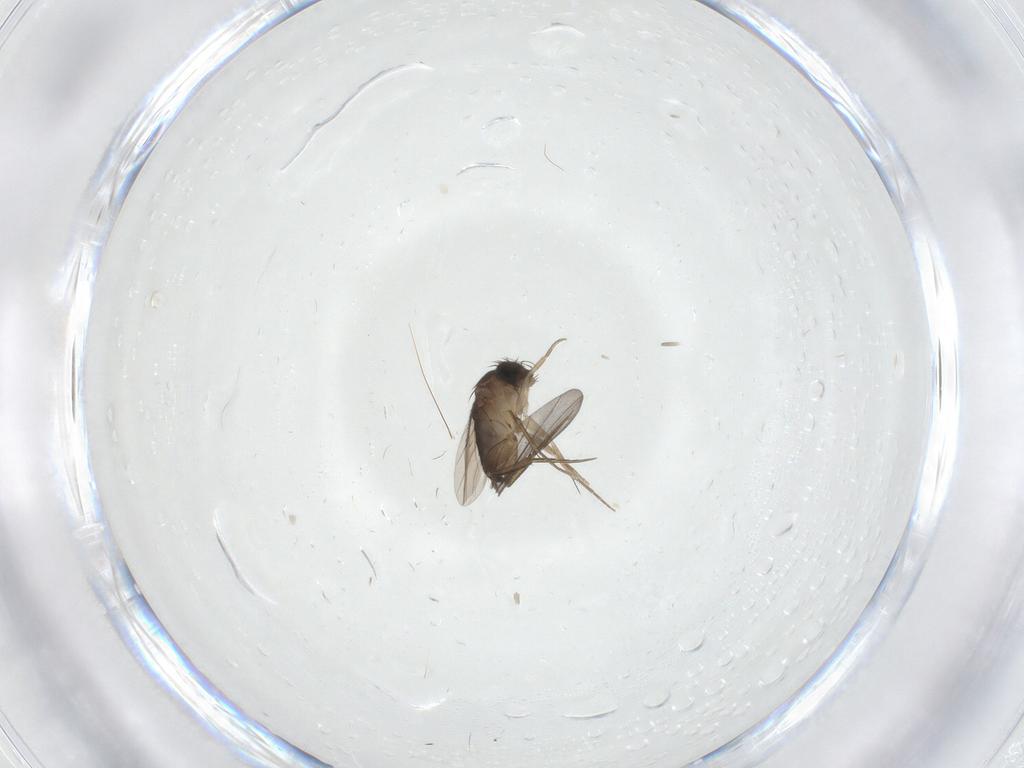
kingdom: Animalia
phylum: Arthropoda
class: Insecta
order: Diptera
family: Phoridae
